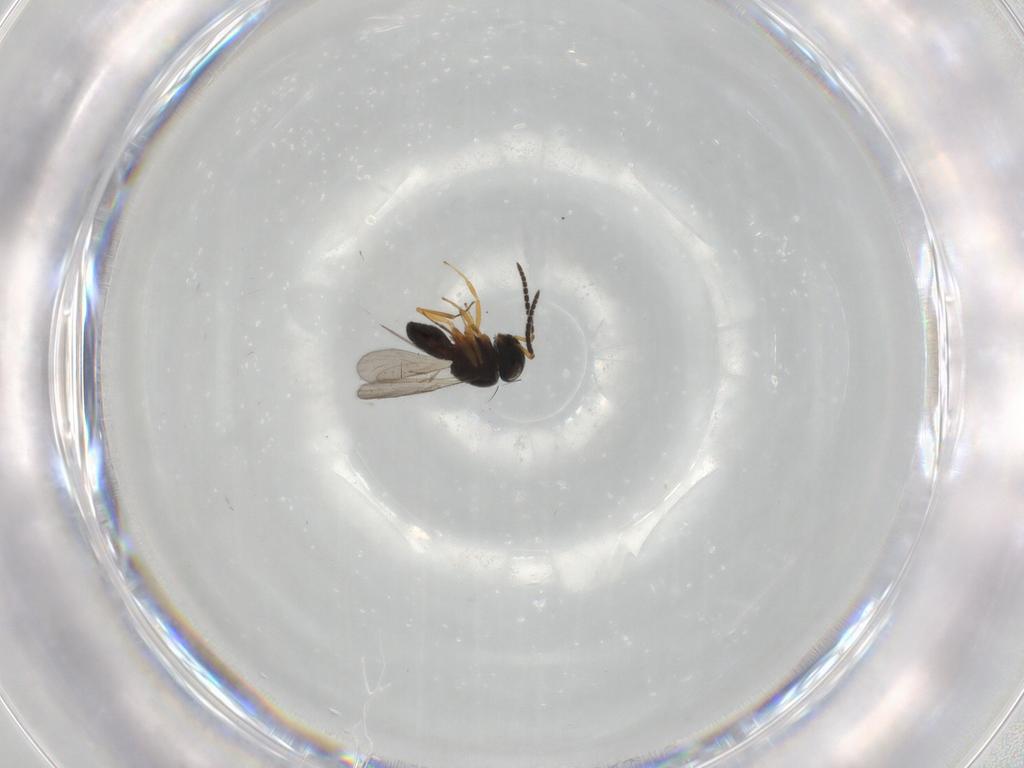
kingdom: Animalia
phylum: Arthropoda
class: Insecta
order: Hymenoptera
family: Scelionidae
